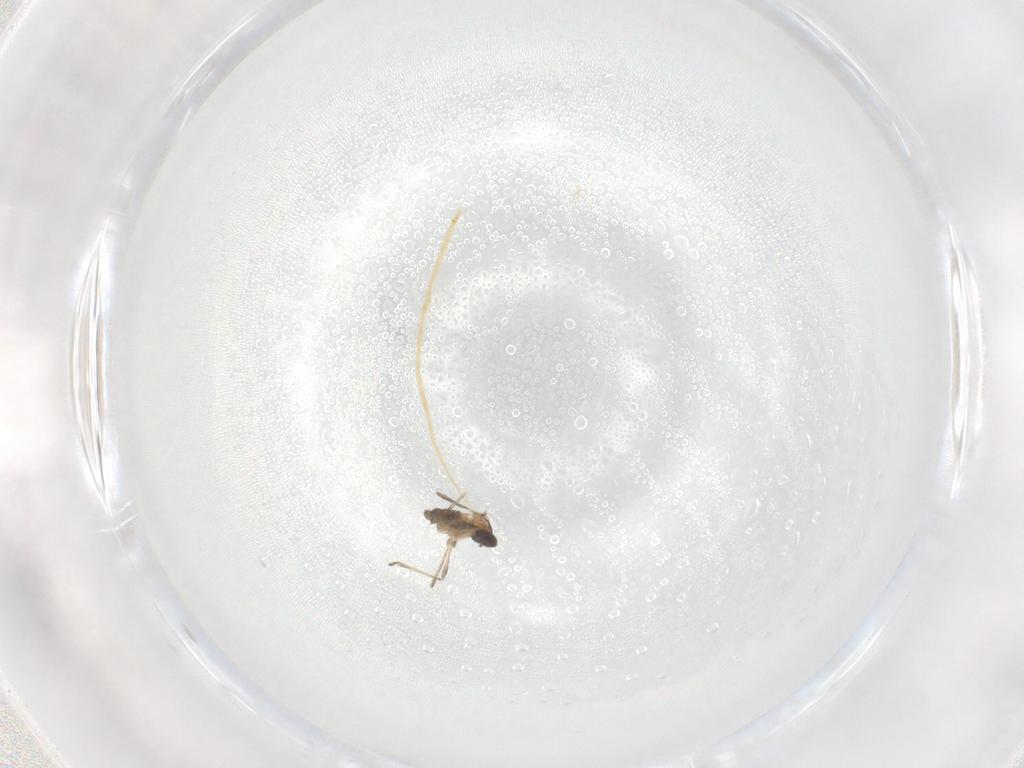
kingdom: Animalia
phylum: Arthropoda
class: Insecta
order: Diptera
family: Cecidomyiidae
